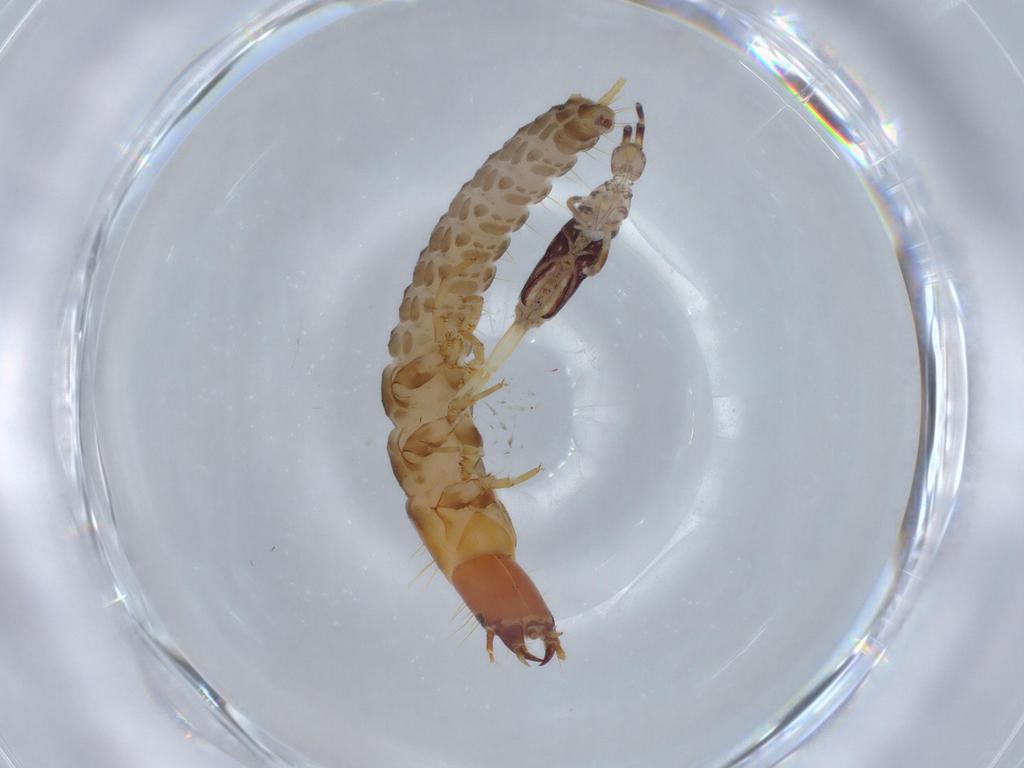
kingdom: Animalia
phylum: Arthropoda
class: Insecta
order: Coleoptera
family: Carabidae
